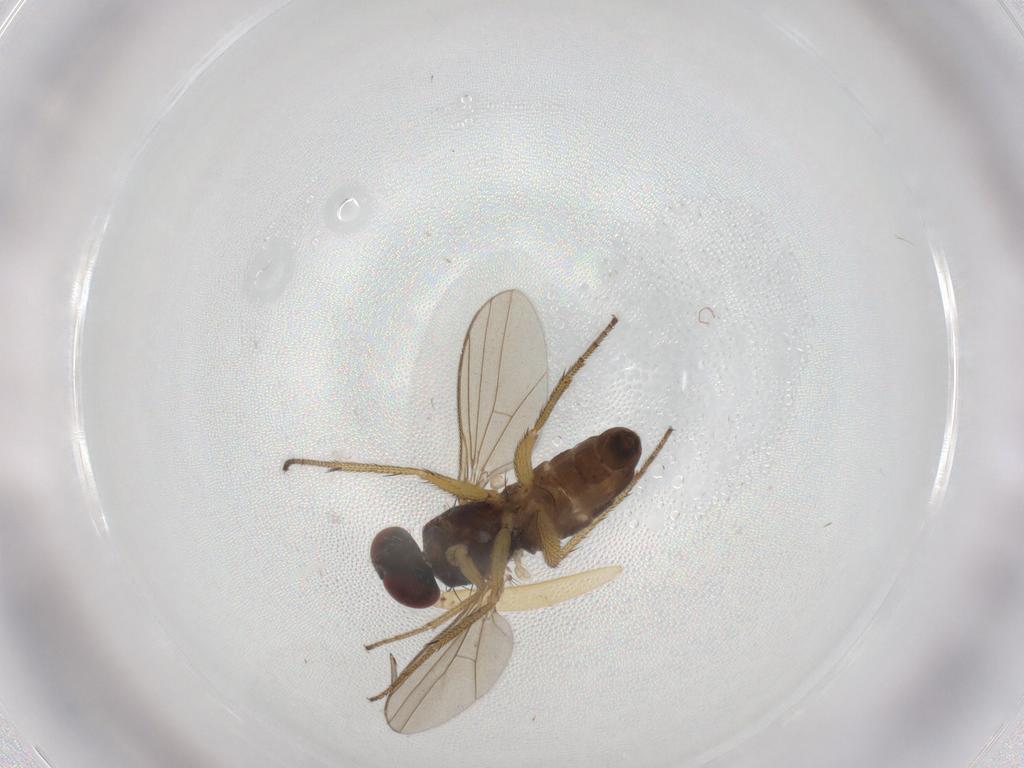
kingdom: Animalia
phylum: Arthropoda
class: Insecta
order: Diptera
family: Dolichopodidae
